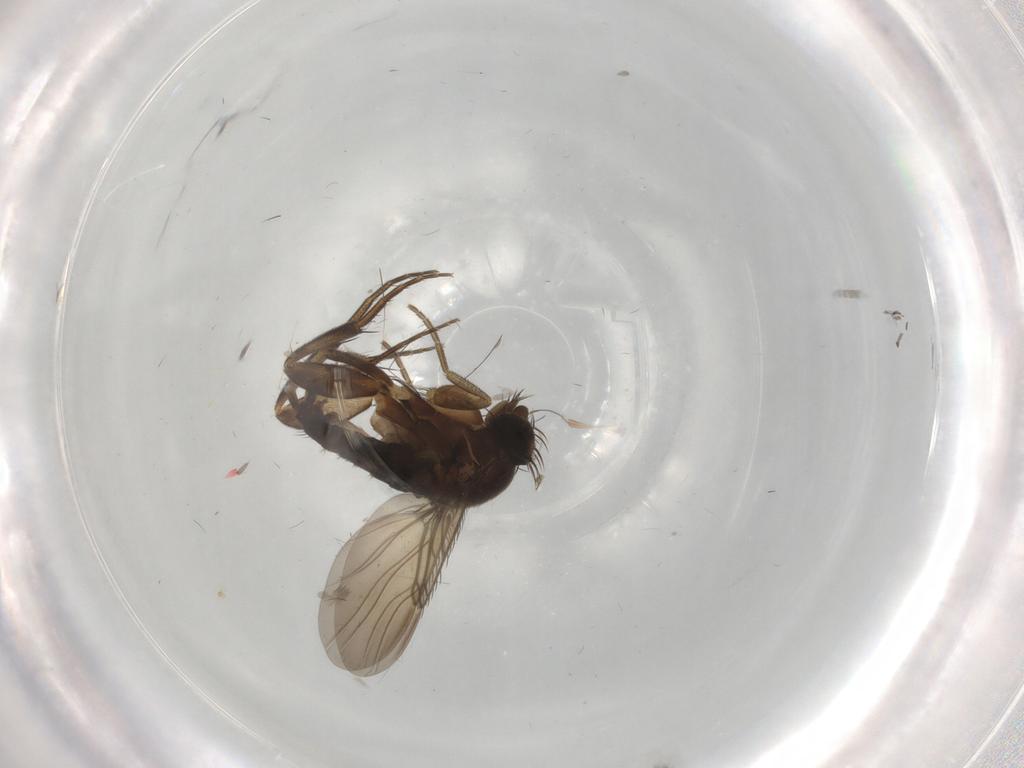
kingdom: Animalia
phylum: Arthropoda
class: Insecta
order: Diptera
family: Phoridae
